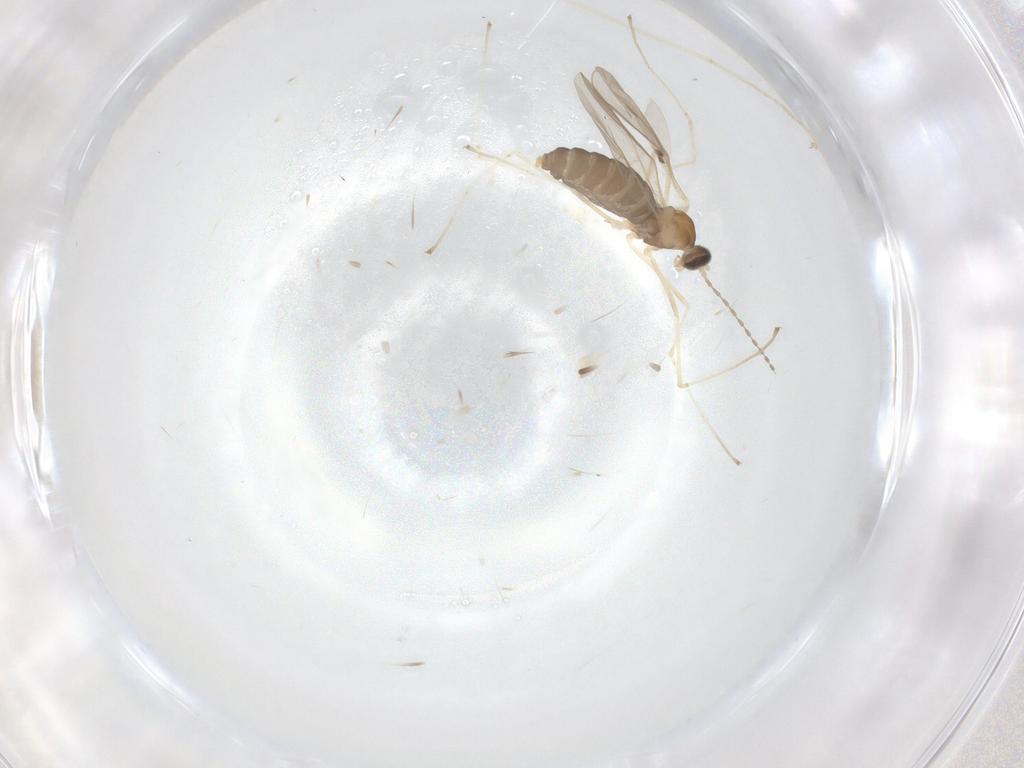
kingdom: Animalia
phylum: Arthropoda
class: Insecta
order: Diptera
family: Cecidomyiidae
